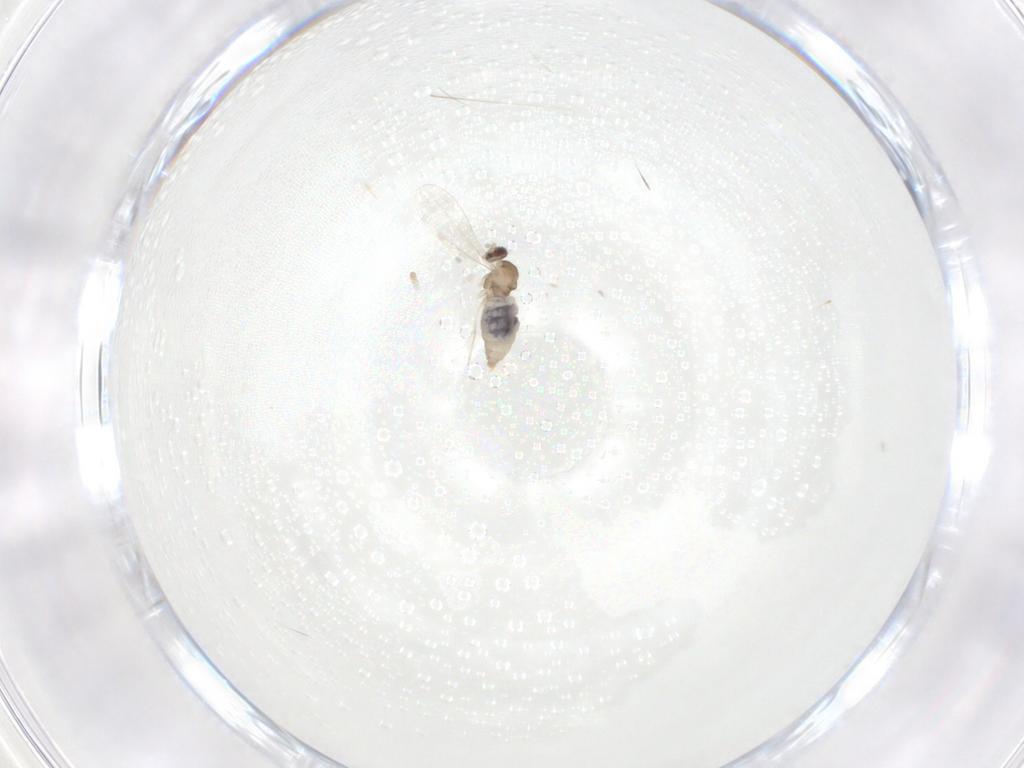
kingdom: Animalia
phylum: Arthropoda
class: Insecta
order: Diptera
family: Cecidomyiidae
